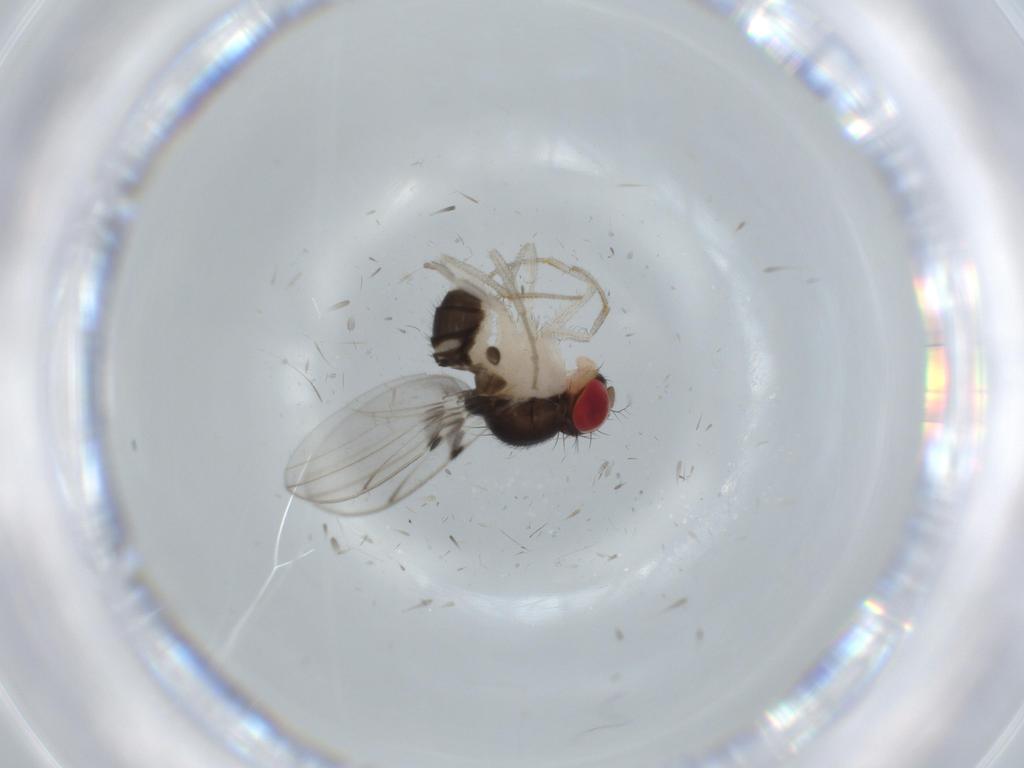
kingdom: Animalia
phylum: Arthropoda
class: Insecta
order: Diptera
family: Drosophilidae
